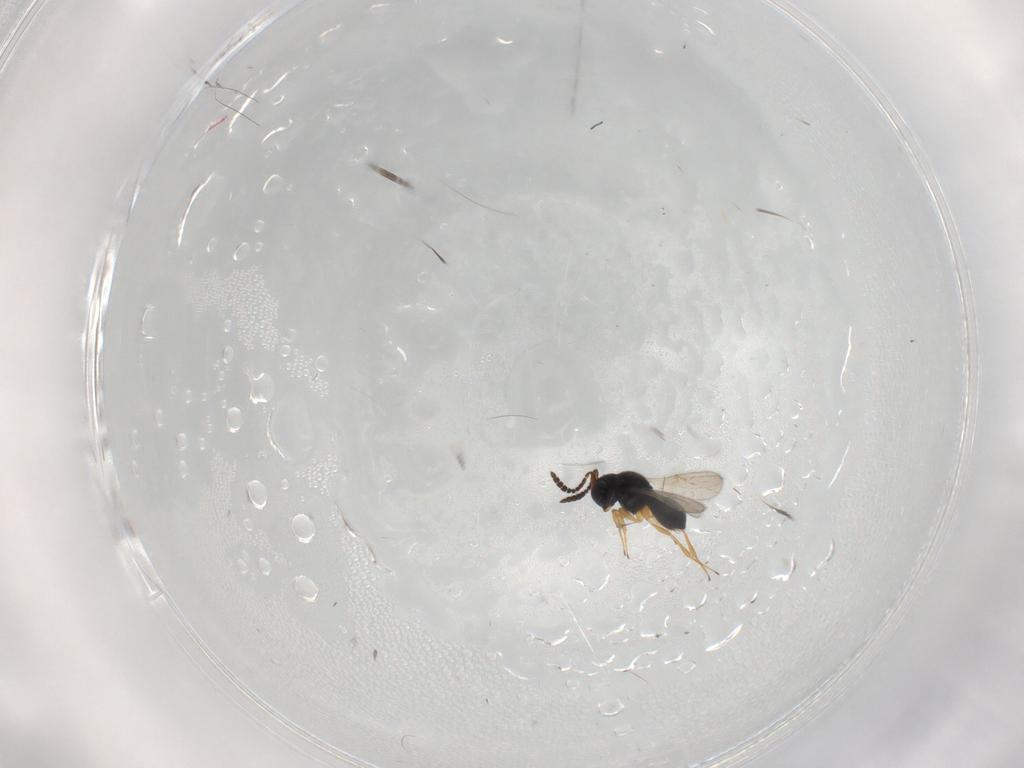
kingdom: Animalia
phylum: Arthropoda
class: Insecta
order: Hymenoptera
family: Scelionidae
